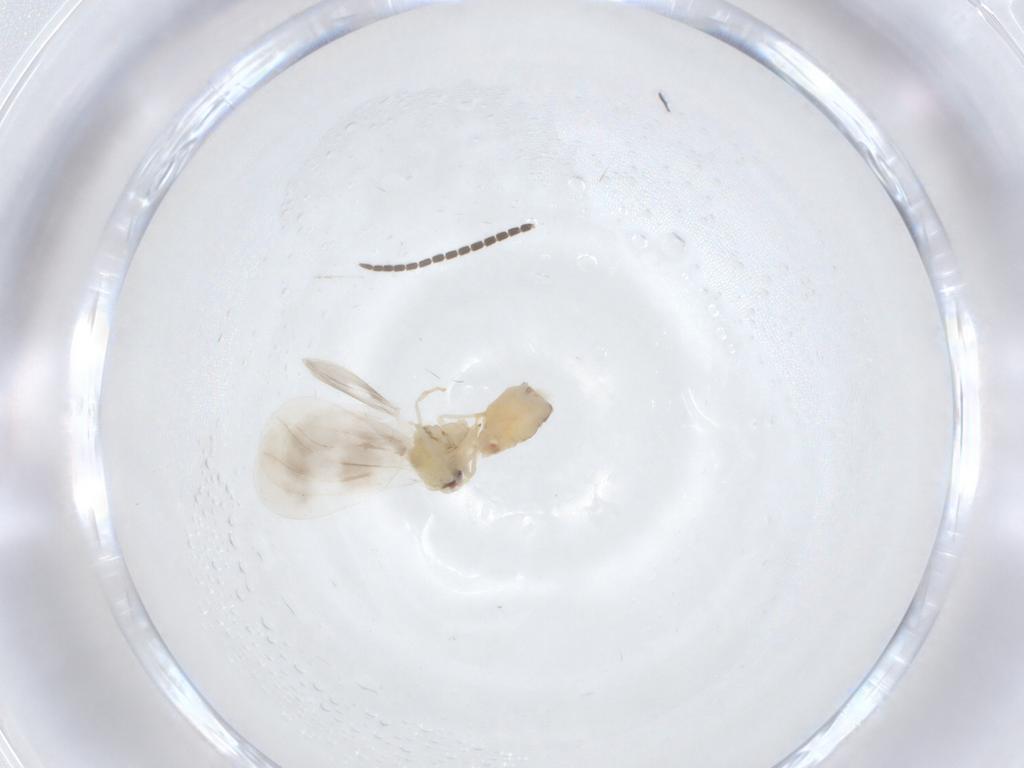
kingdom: Animalia
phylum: Arthropoda
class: Insecta
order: Hemiptera
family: Aleyrodidae
